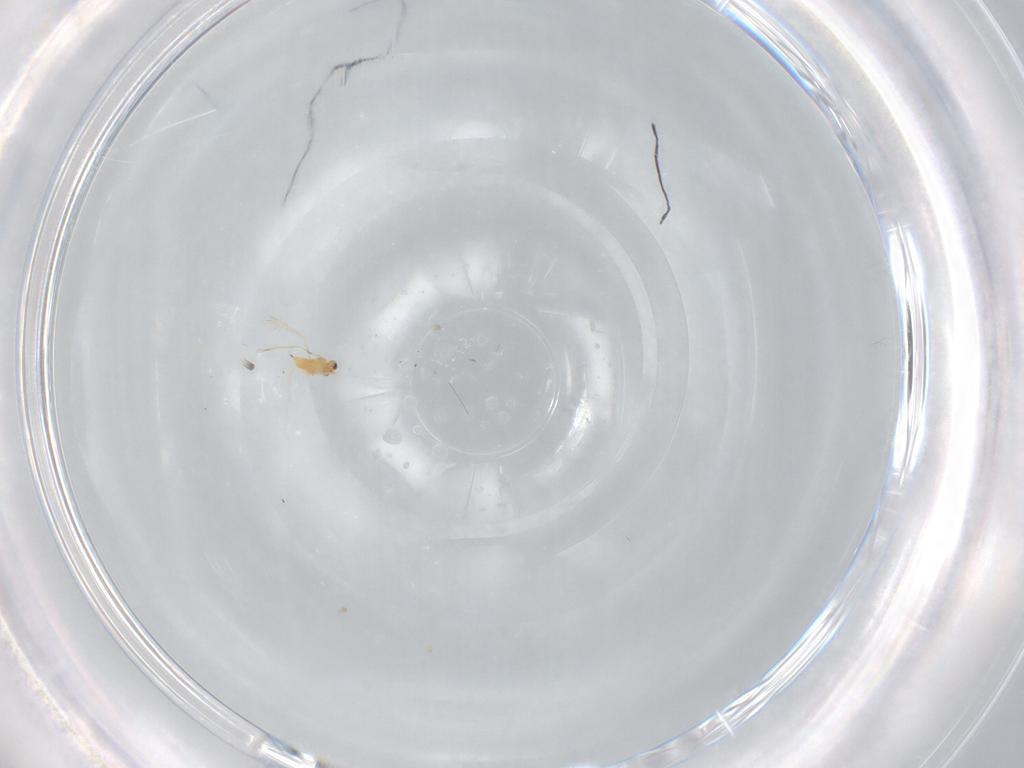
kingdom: Animalia
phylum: Arthropoda
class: Insecta
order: Hymenoptera
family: Mymaridae
